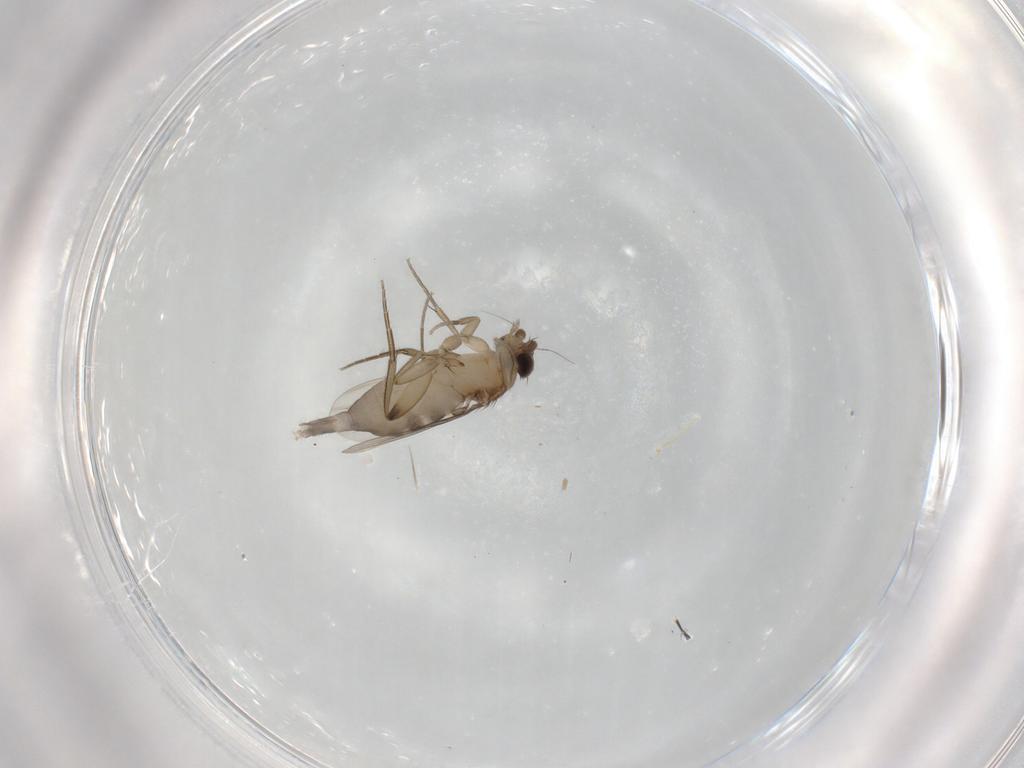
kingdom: Animalia
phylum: Arthropoda
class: Insecta
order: Diptera
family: Phoridae
